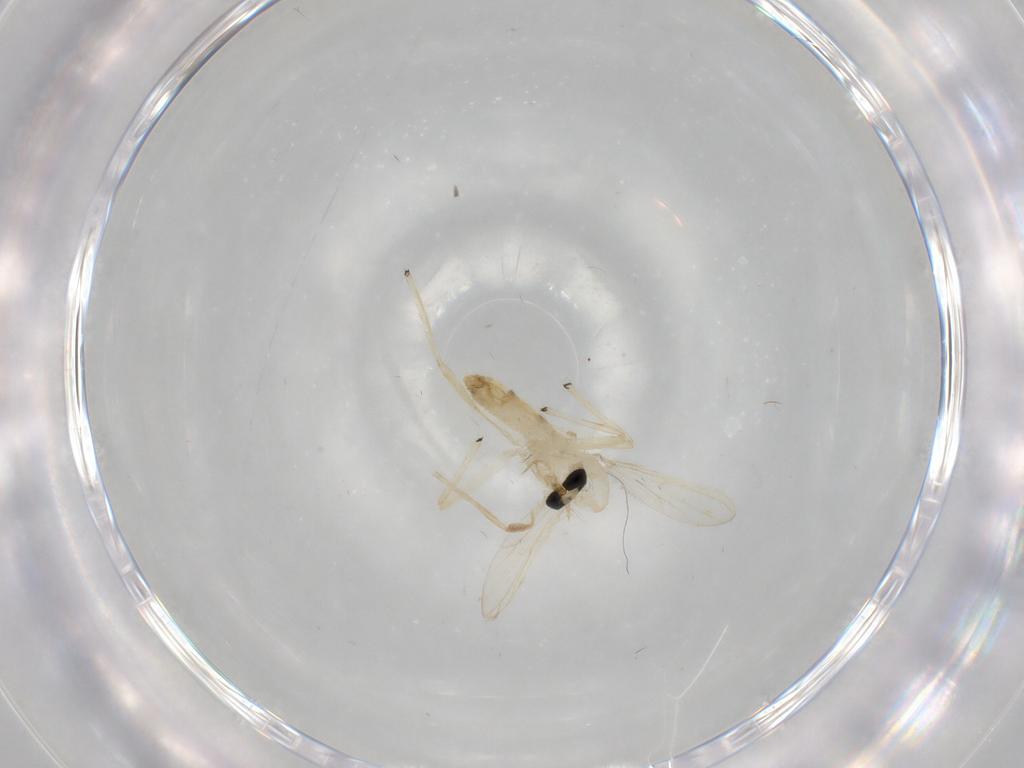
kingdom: Animalia
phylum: Arthropoda
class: Insecta
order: Diptera
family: Chironomidae
